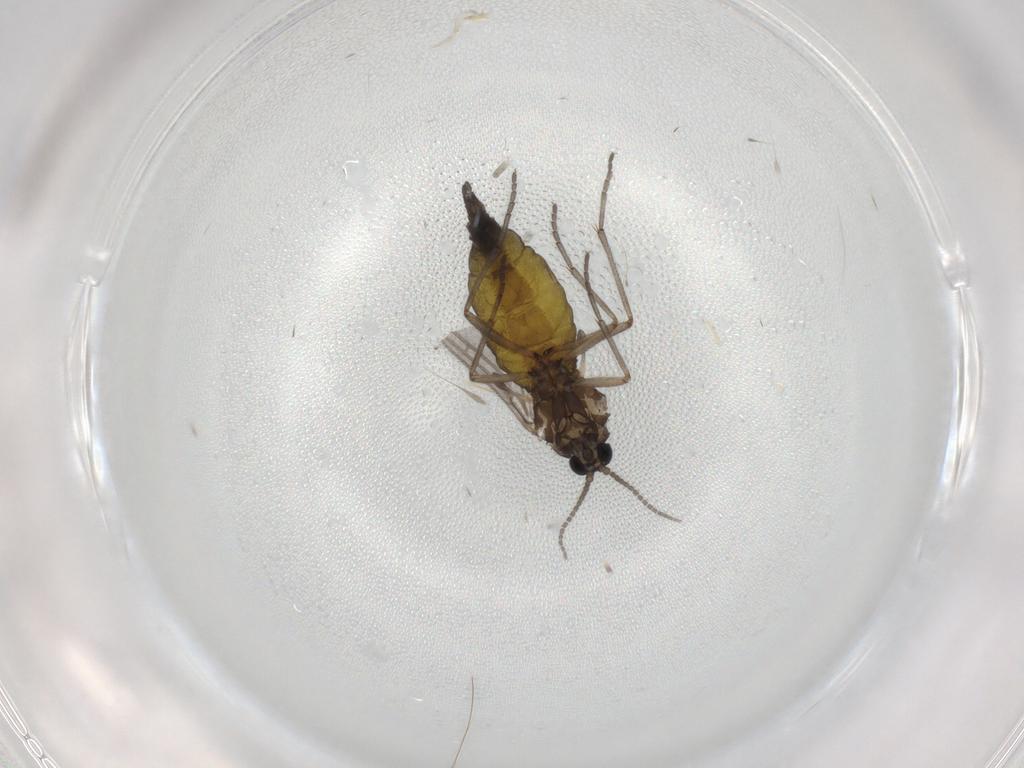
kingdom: Animalia
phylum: Arthropoda
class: Insecta
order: Diptera
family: Sciaridae
